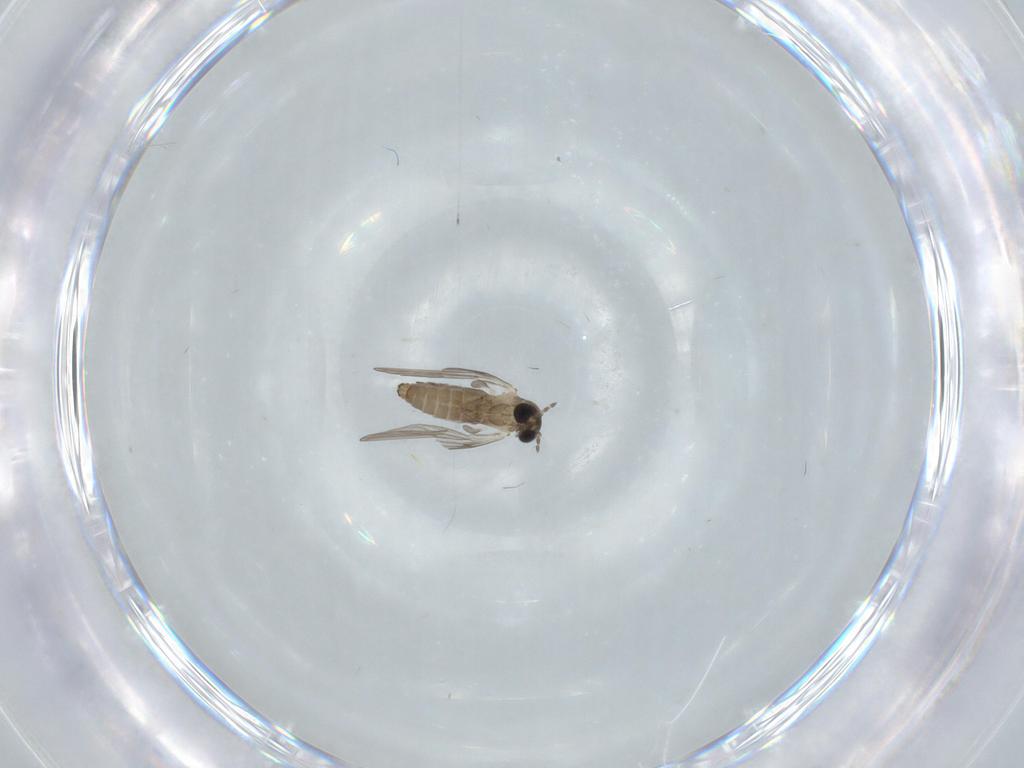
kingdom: Animalia
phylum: Arthropoda
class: Insecta
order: Diptera
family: Psychodidae
